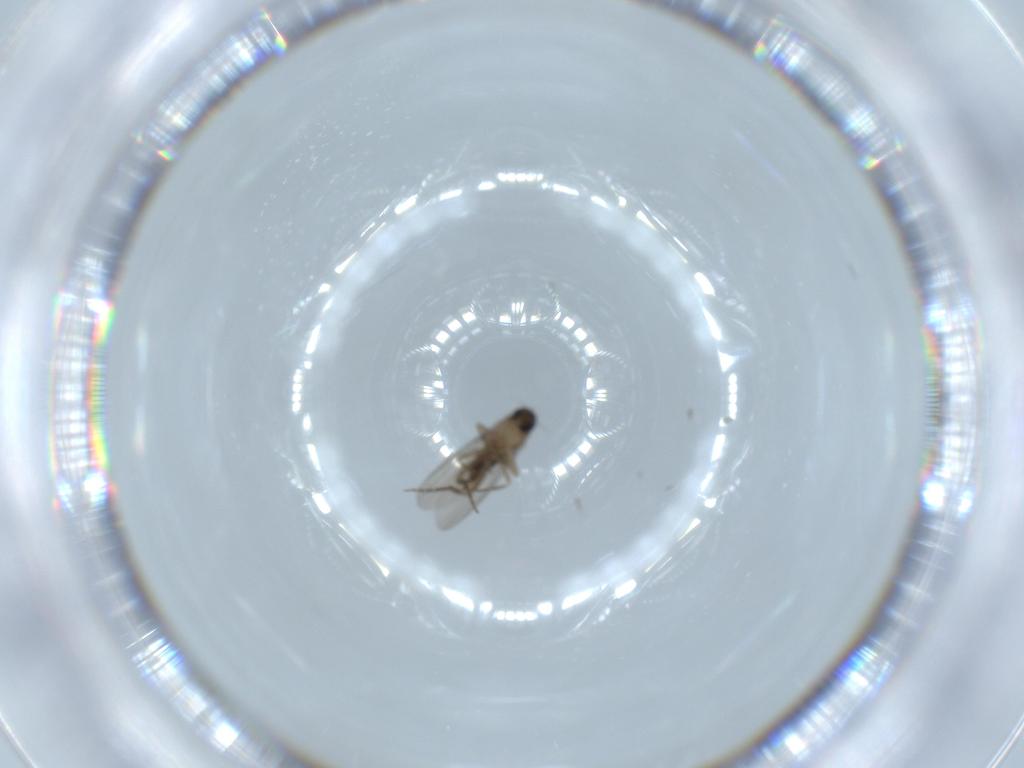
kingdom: Animalia
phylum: Arthropoda
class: Insecta
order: Diptera
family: Phoridae
